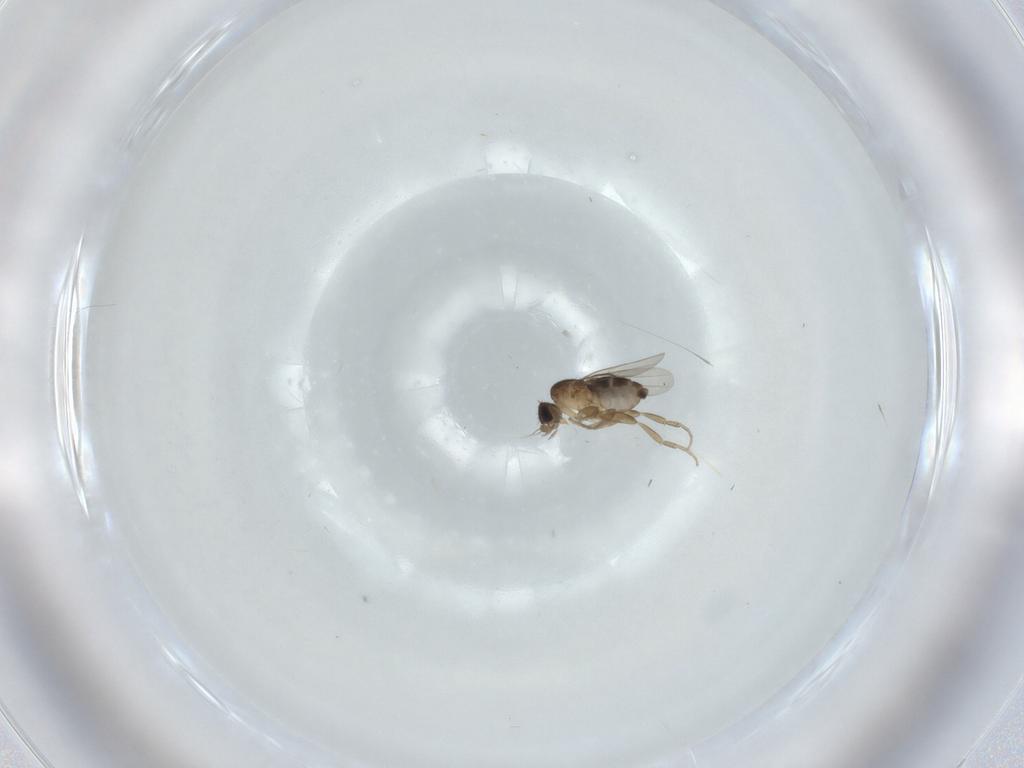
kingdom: Animalia
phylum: Arthropoda
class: Insecta
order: Diptera
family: Phoridae
